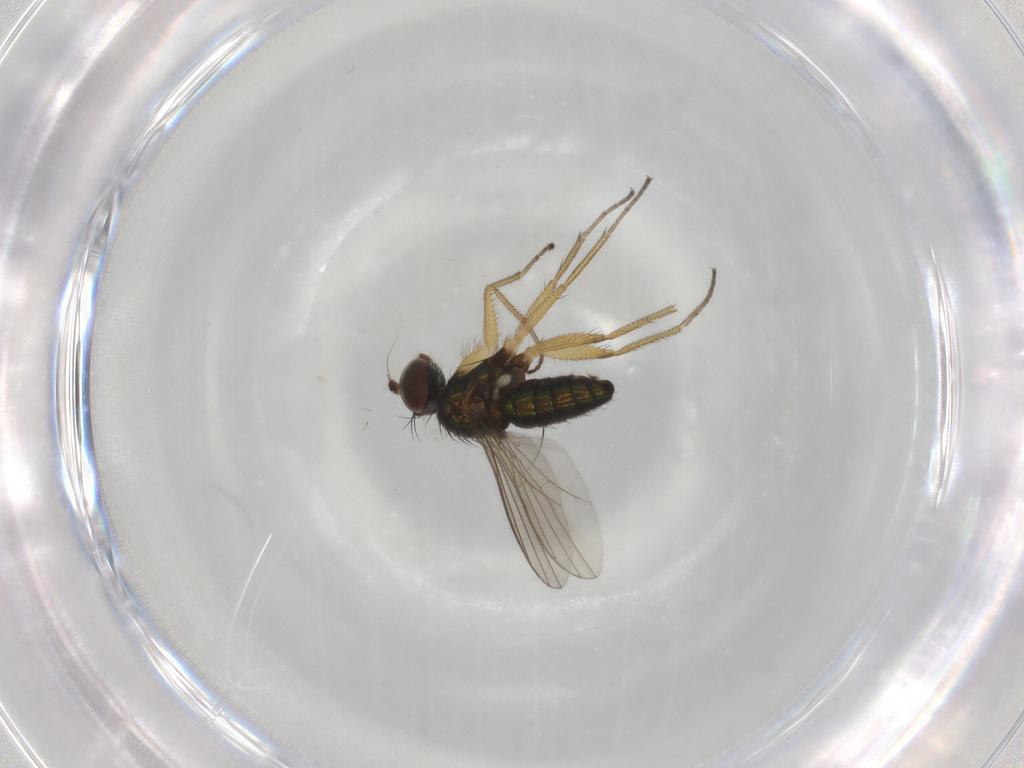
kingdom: Animalia
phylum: Arthropoda
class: Insecta
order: Diptera
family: Dolichopodidae
